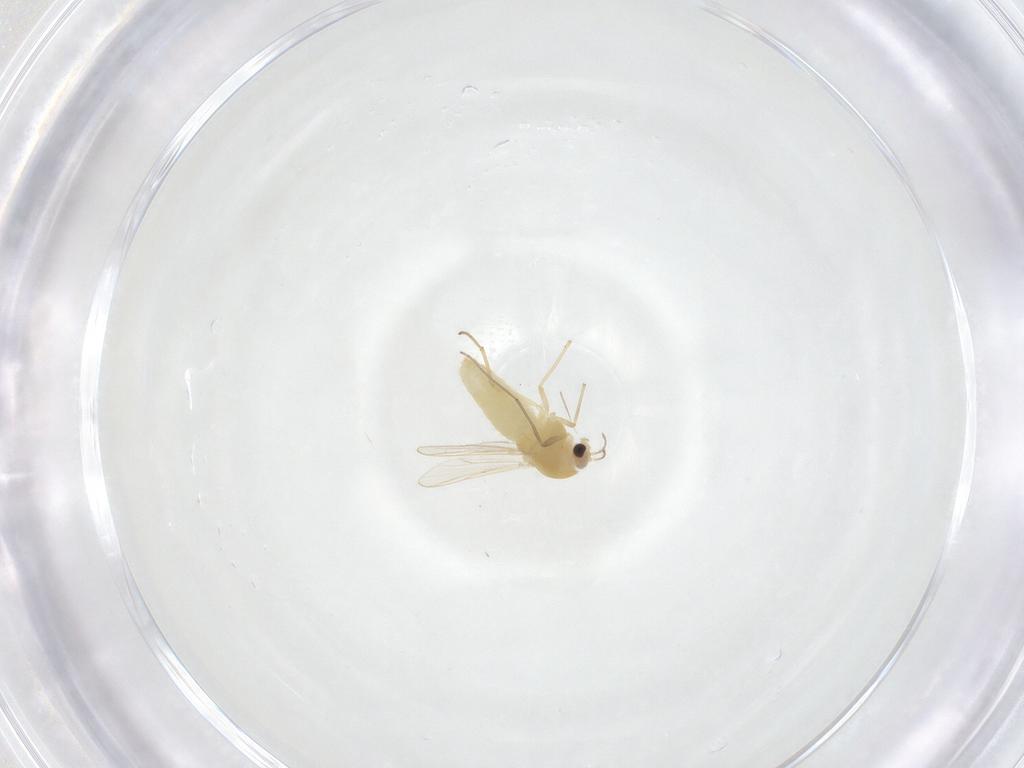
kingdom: Animalia
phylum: Arthropoda
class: Insecta
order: Diptera
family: Chironomidae
